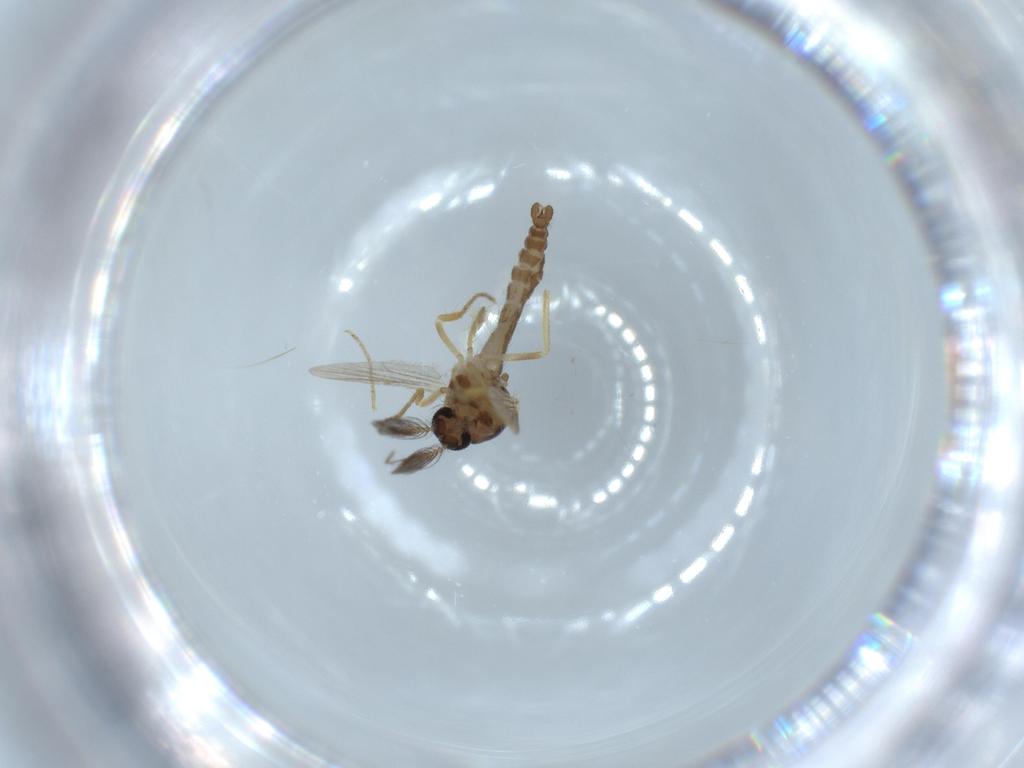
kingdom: Animalia
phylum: Arthropoda
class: Insecta
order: Diptera
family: Ceratopogonidae
